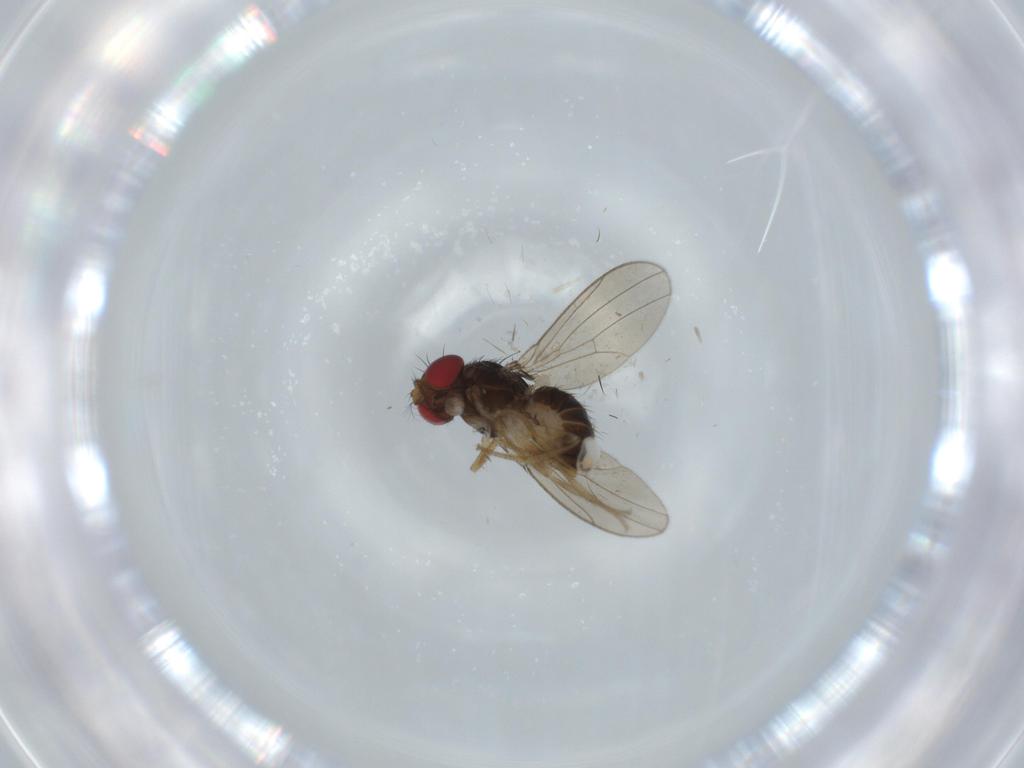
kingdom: Animalia
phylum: Arthropoda
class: Insecta
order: Diptera
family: Drosophilidae
